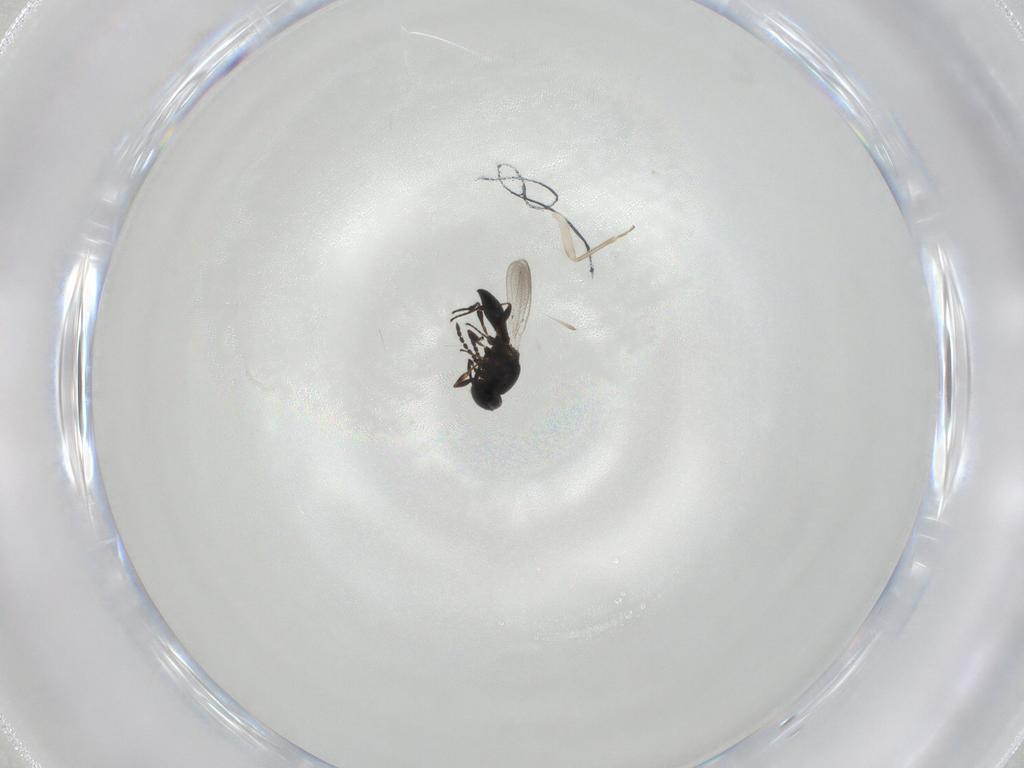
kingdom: Animalia
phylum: Arthropoda
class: Insecta
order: Hymenoptera
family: Platygastridae
